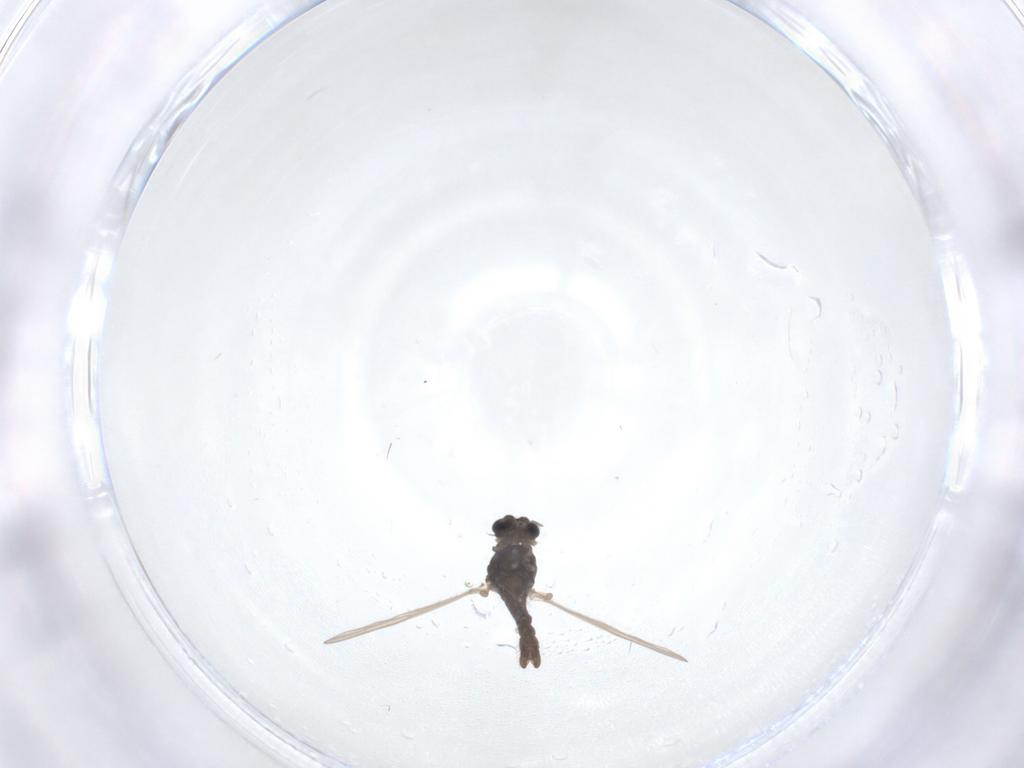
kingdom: Animalia
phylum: Arthropoda
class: Insecta
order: Diptera
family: Chironomidae
